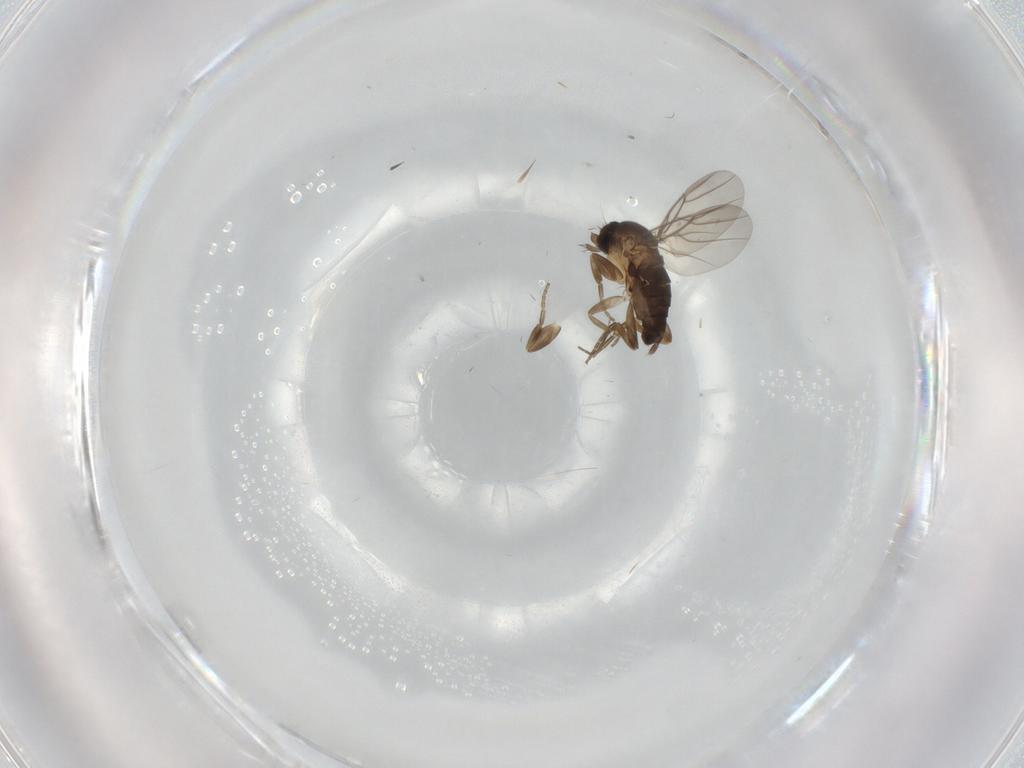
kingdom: Animalia
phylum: Arthropoda
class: Insecta
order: Diptera
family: Phoridae
